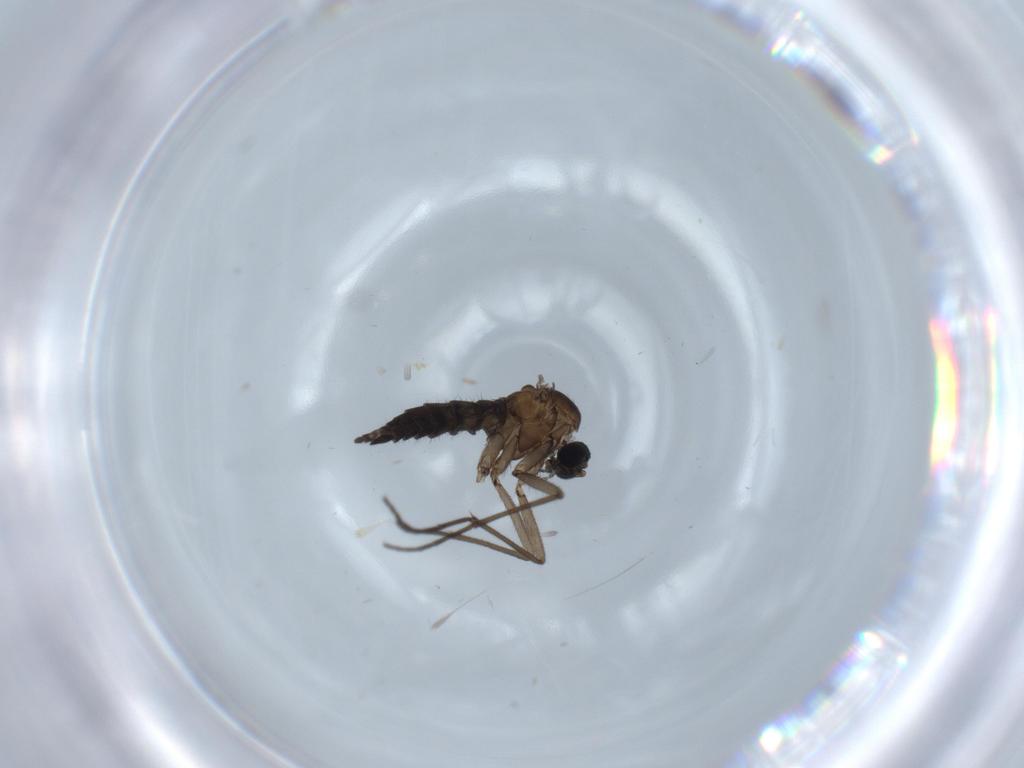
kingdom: Animalia
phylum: Arthropoda
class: Insecta
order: Diptera
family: Sciaridae
